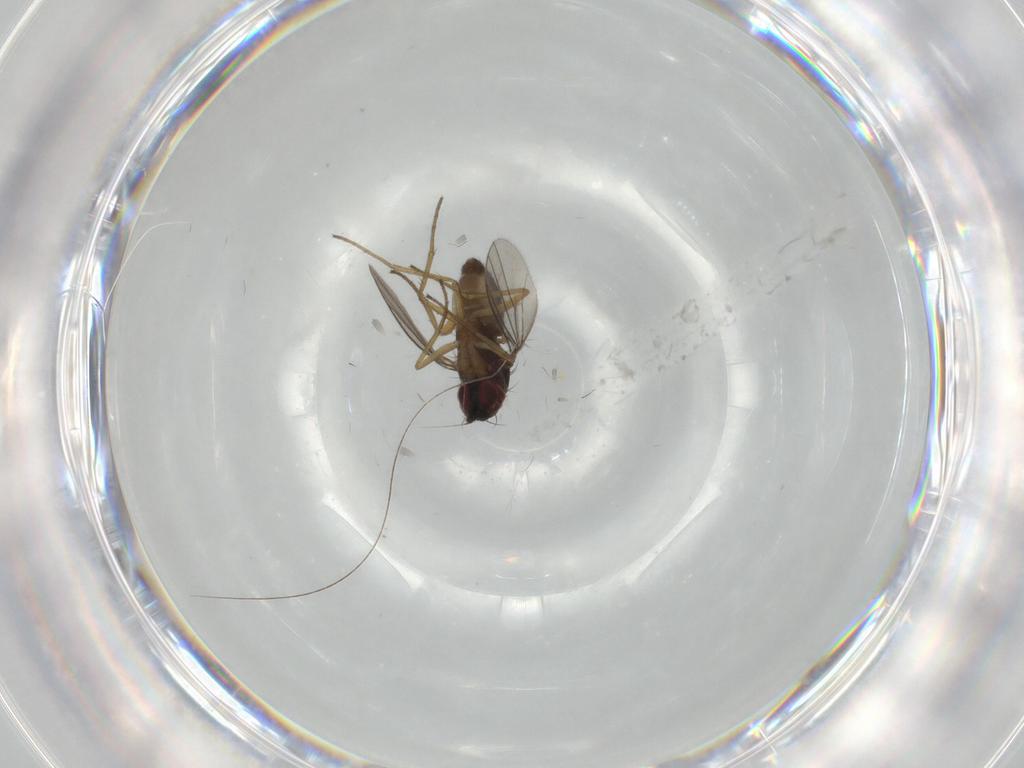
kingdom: Animalia
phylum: Arthropoda
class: Insecta
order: Diptera
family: Dolichopodidae
